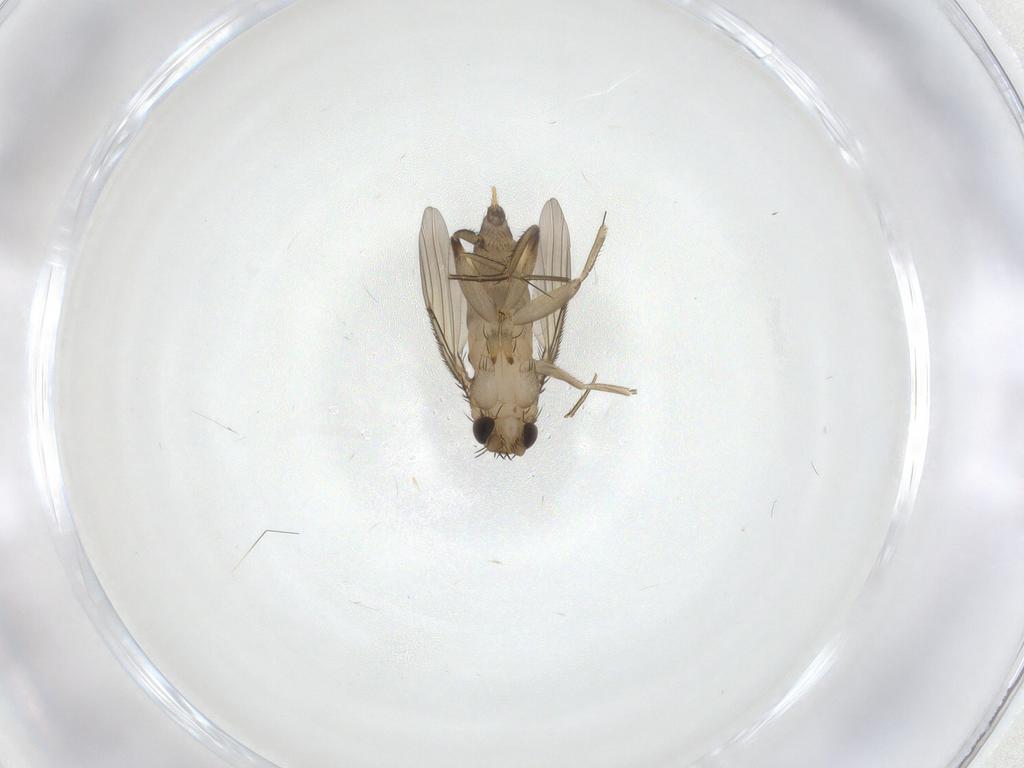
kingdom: Animalia
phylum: Arthropoda
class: Insecta
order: Diptera
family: Phoridae
